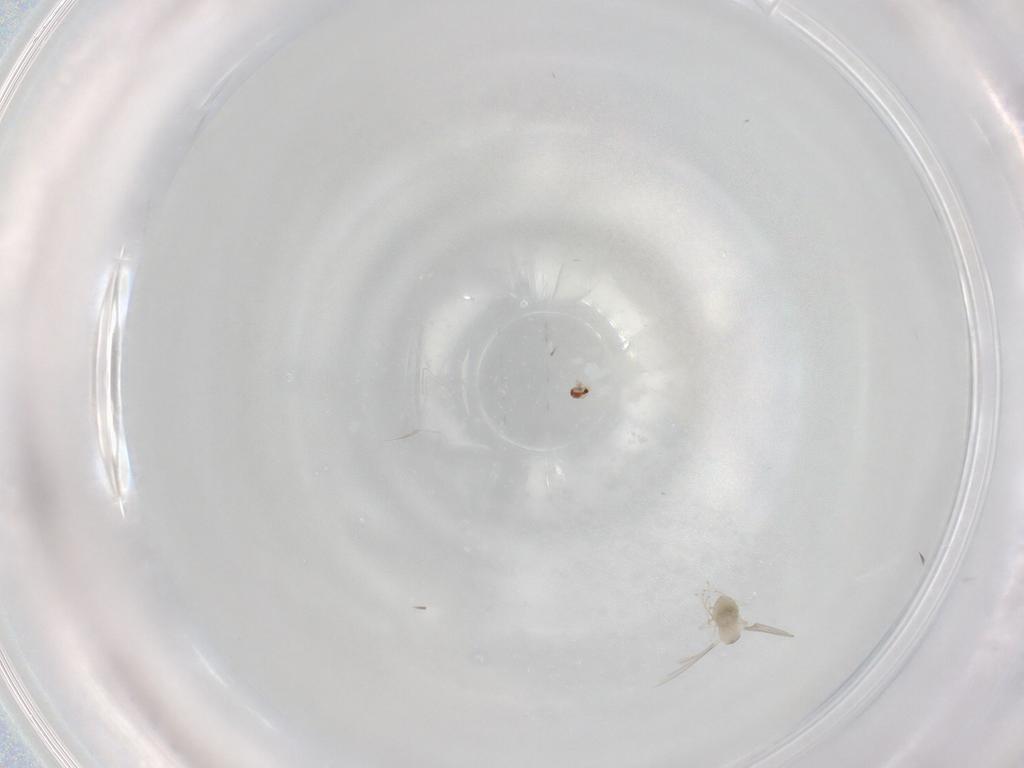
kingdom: Animalia
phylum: Arthropoda
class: Insecta
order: Diptera
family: Cecidomyiidae
